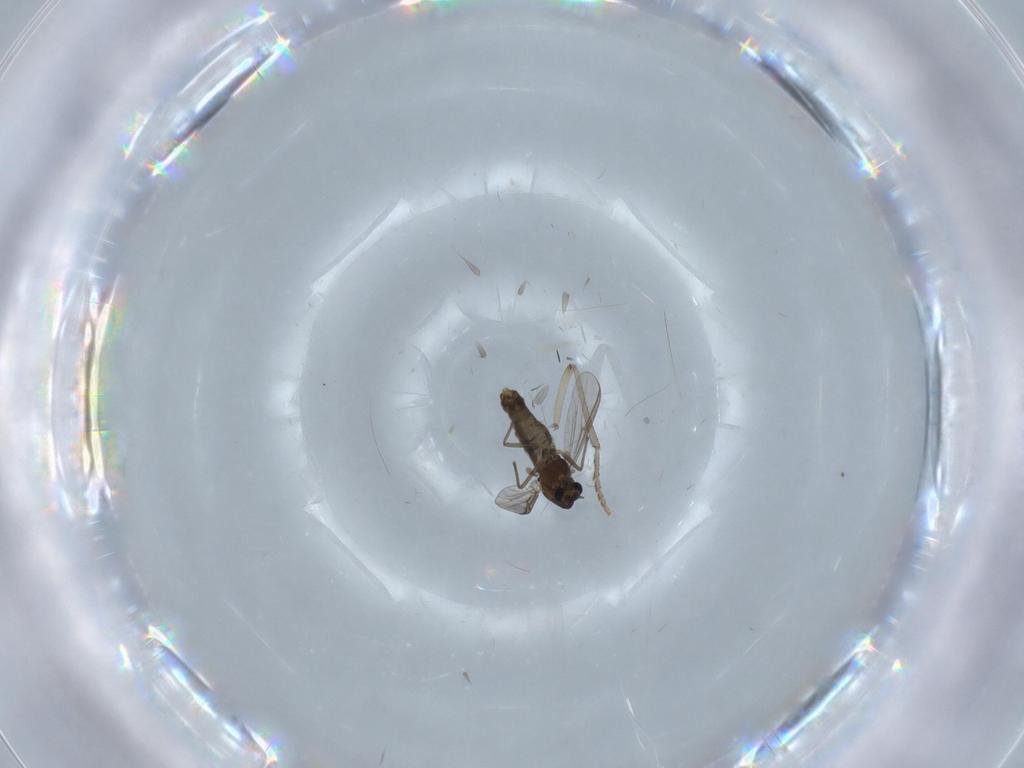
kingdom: Animalia
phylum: Arthropoda
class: Insecta
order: Diptera
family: Chironomidae
